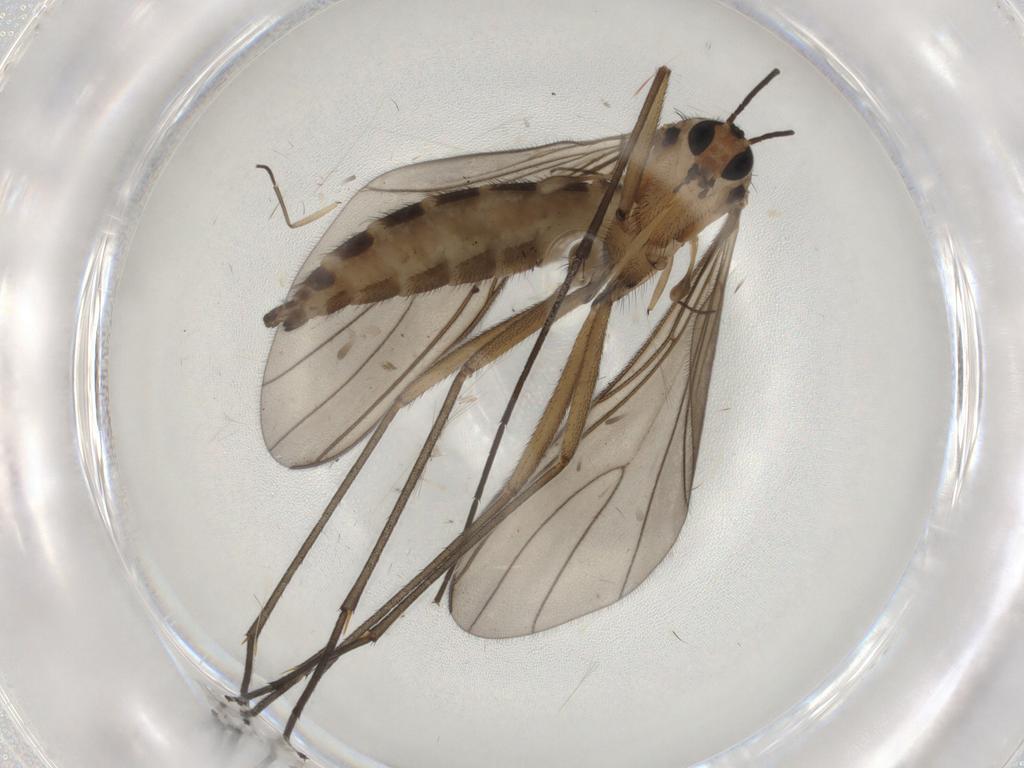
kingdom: Animalia
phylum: Arthropoda
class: Insecta
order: Diptera
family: Sciaridae
